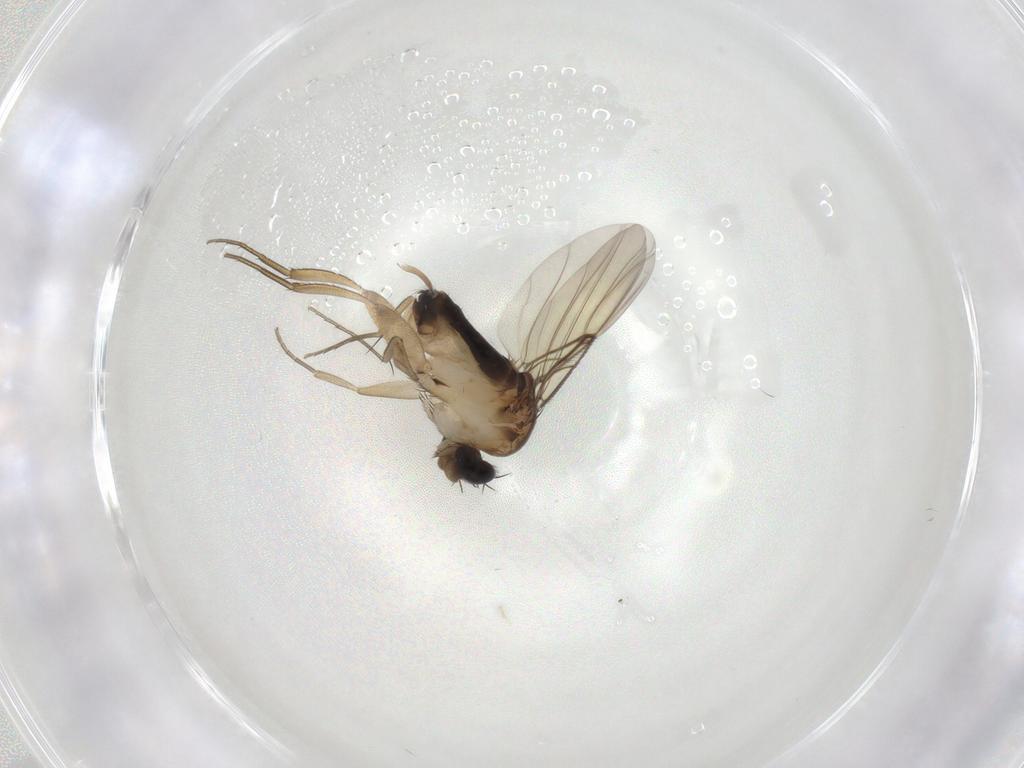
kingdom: Animalia
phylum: Arthropoda
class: Insecta
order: Diptera
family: Phoridae
